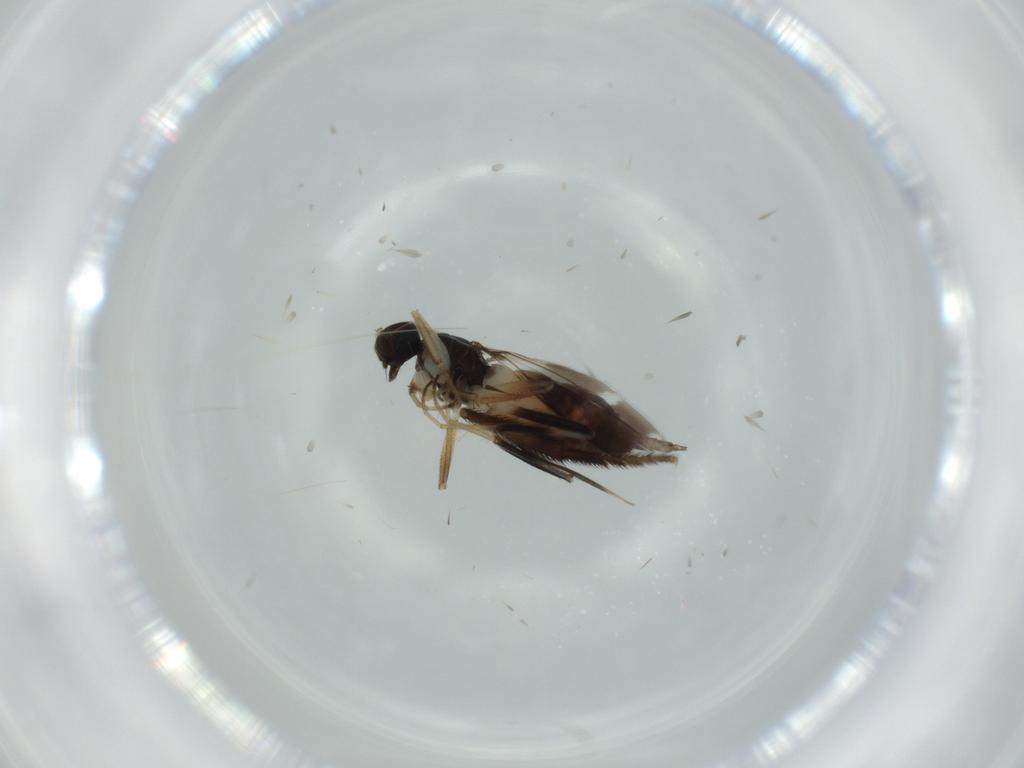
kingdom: Animalia
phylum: Arthropoda
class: Insecta
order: Diptera
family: Hybotidae
